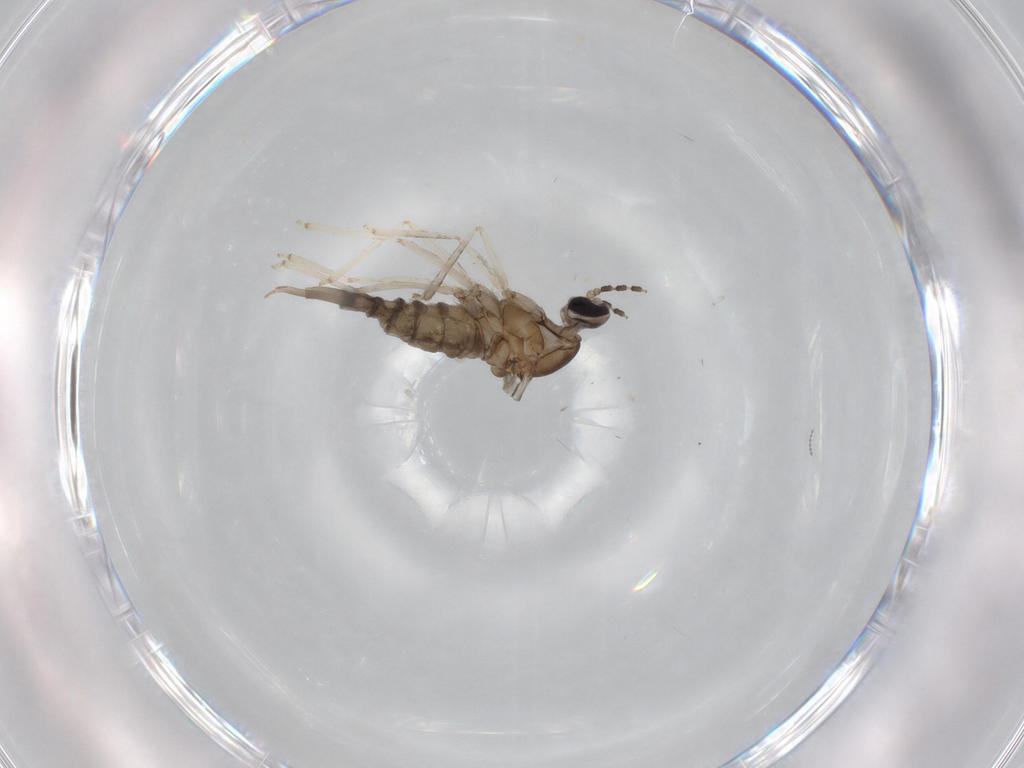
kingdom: Animalia
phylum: Arthropoda
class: Insecta
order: Diptera
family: Cecidomyiidae
